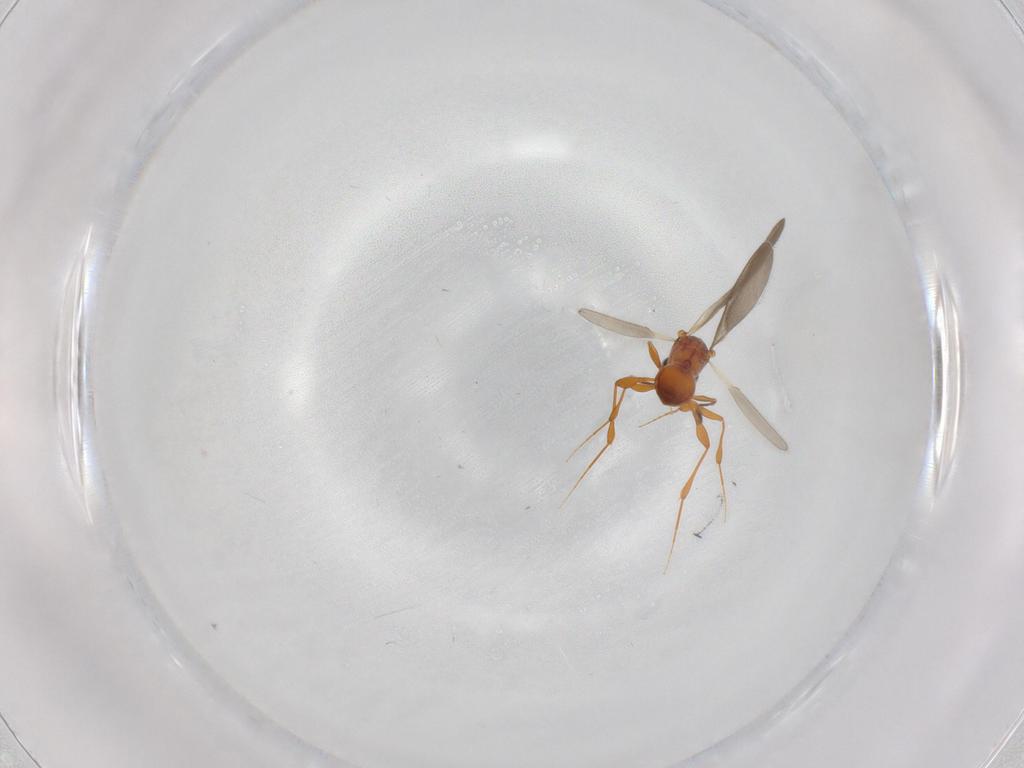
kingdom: Animalia
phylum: Arthropoda
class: Insecta
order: Hymenoptera
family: Platygastridae
